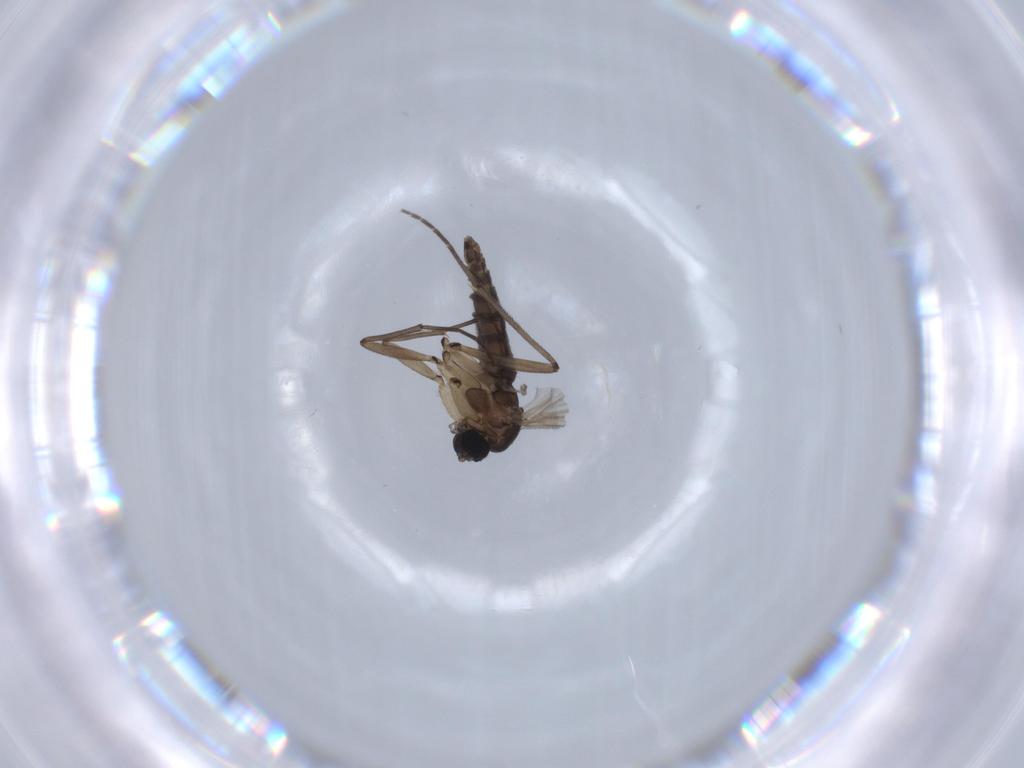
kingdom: Animalia
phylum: Arthropoda
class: Insecta
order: Diptera
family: Sciaridae
